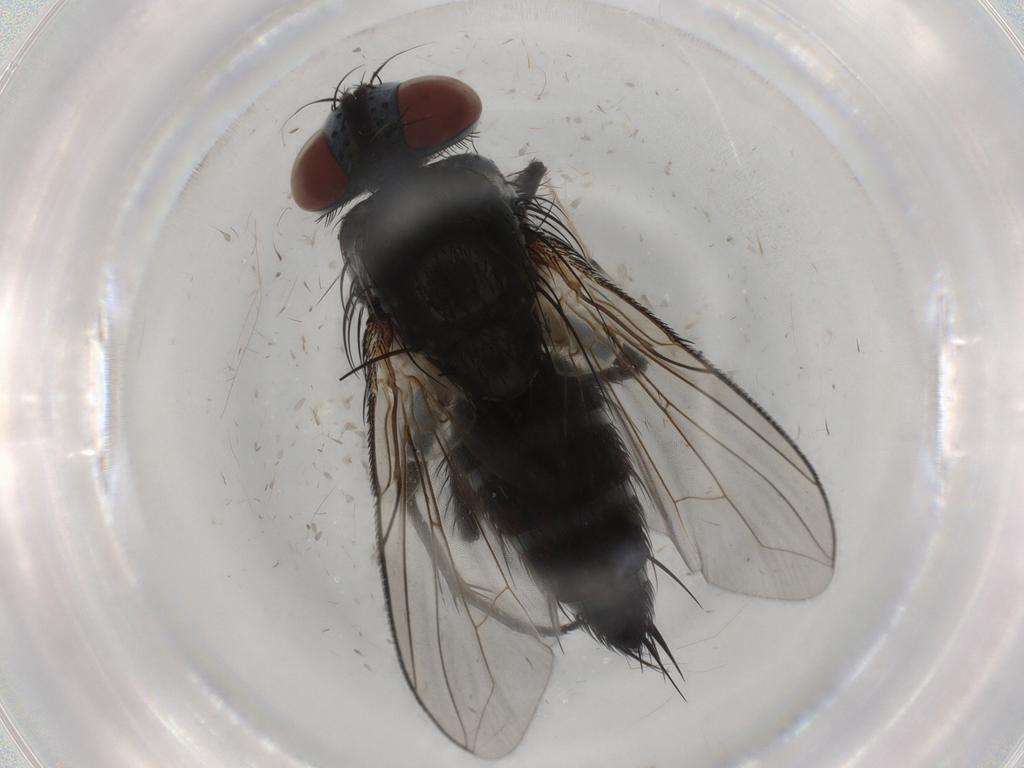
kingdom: Animalia
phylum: Arthropoda
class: Insecta
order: Diptera
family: Tachinidae
